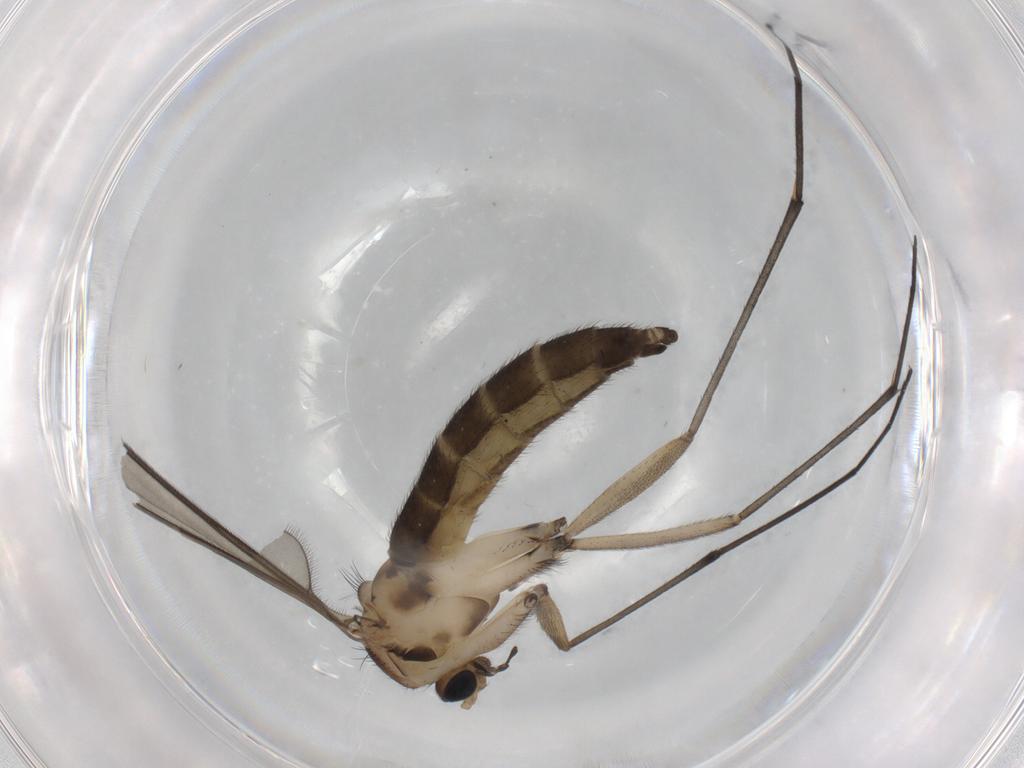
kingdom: Animalia
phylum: Arthropoda
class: Insecta
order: Diptera
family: Sciaridae
